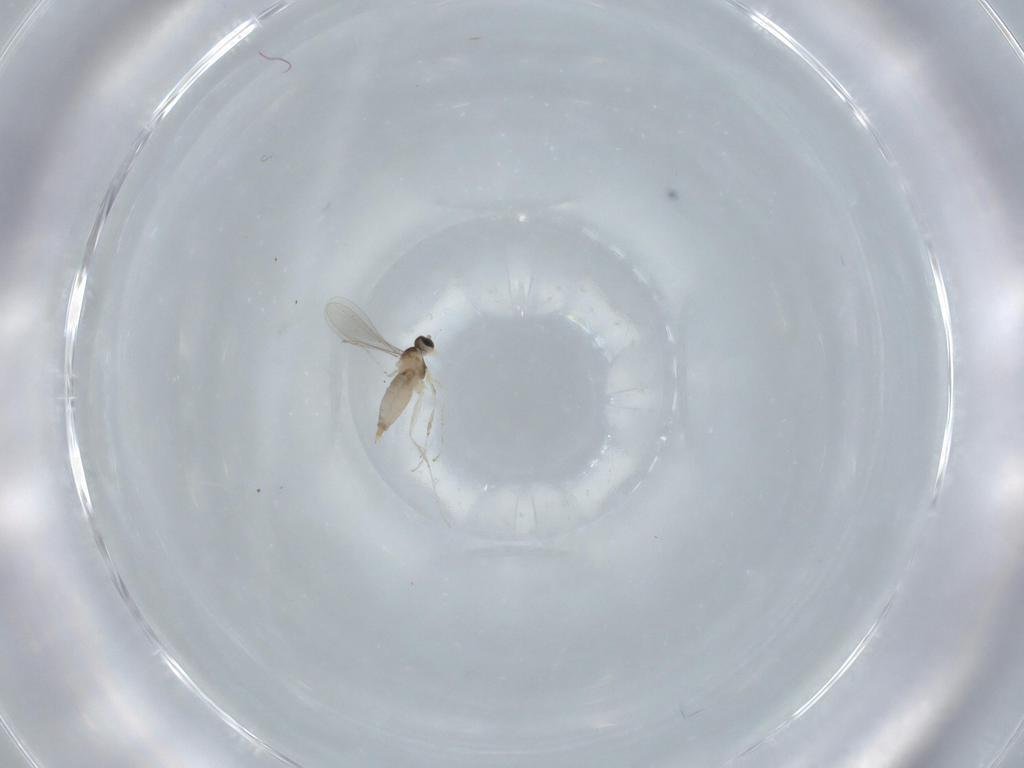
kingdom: Animalia
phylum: Arthropoda
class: Insecta
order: Diptera
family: Cecidomyiidae
